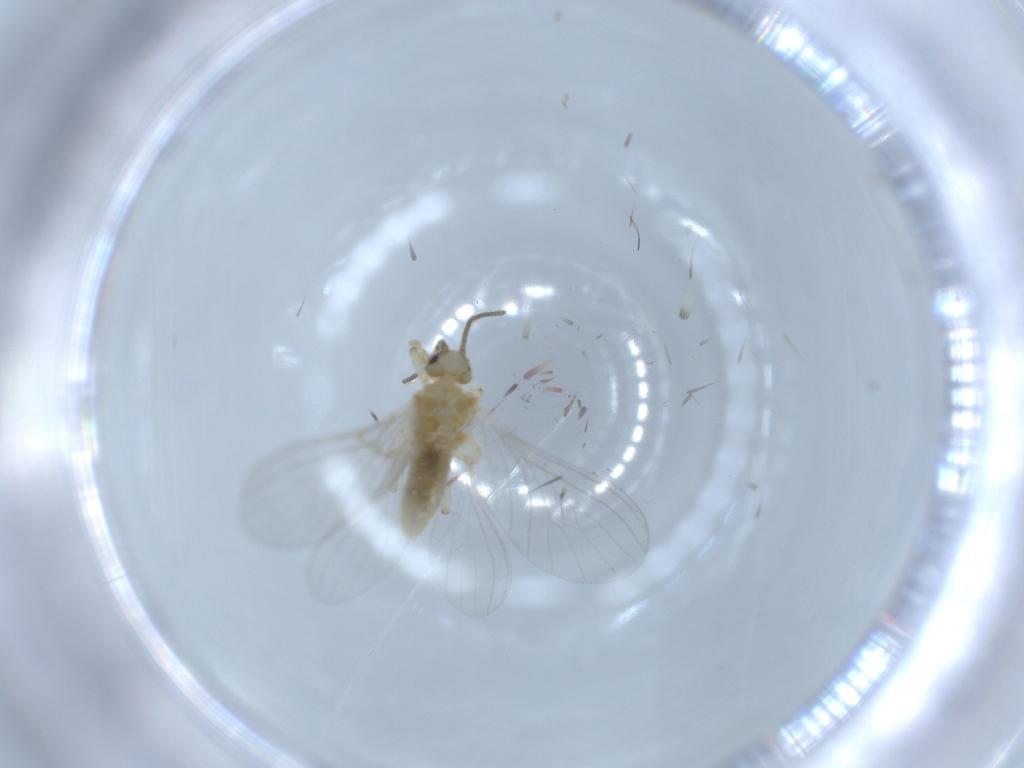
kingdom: Animalia
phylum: Arthropoda
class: Insecta
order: Neuroptera
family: Coniopterygidae
